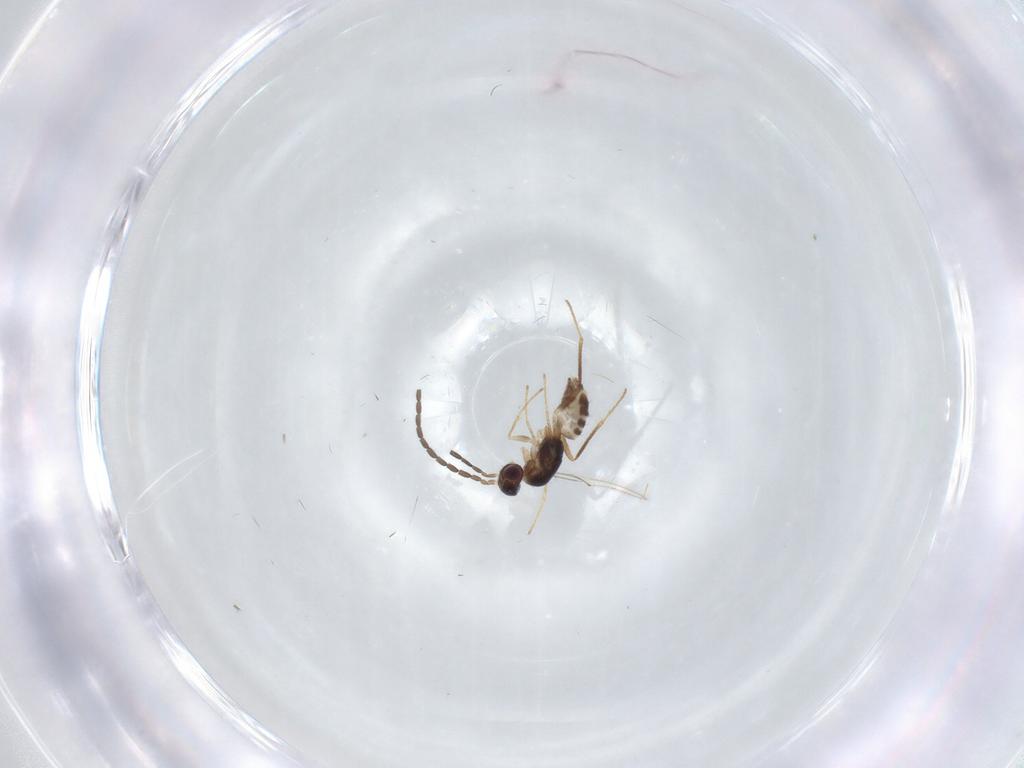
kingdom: Animalia
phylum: Arthropoda
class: Insecta
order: Hymenoptera
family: Mymaridae
